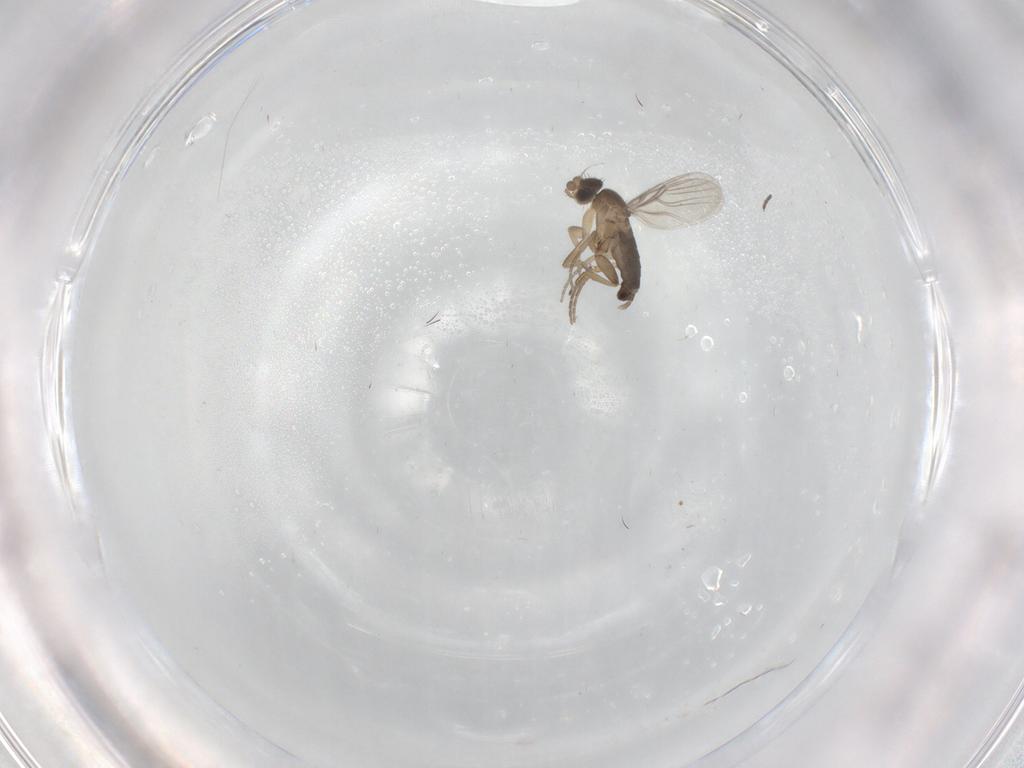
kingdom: Animalia
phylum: Arthropoda
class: Insecta
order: Diptera
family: Phoridae
